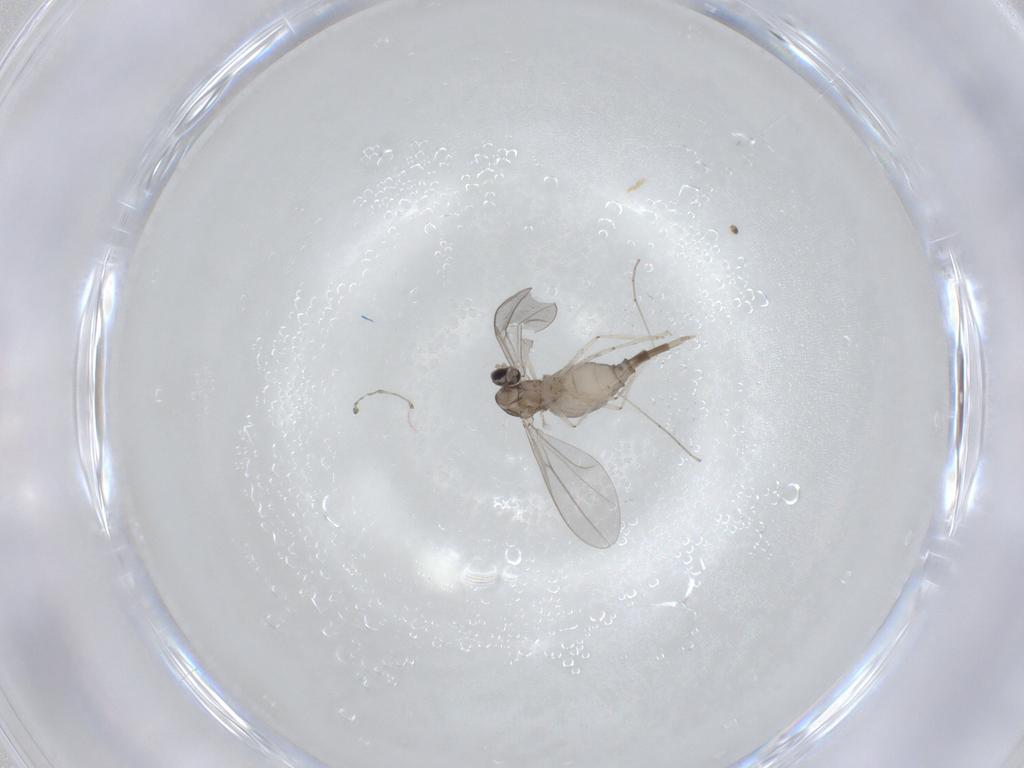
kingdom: Animalia
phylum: Arthropoda
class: Insecta
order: Diptera
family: Cecidomyiidae
